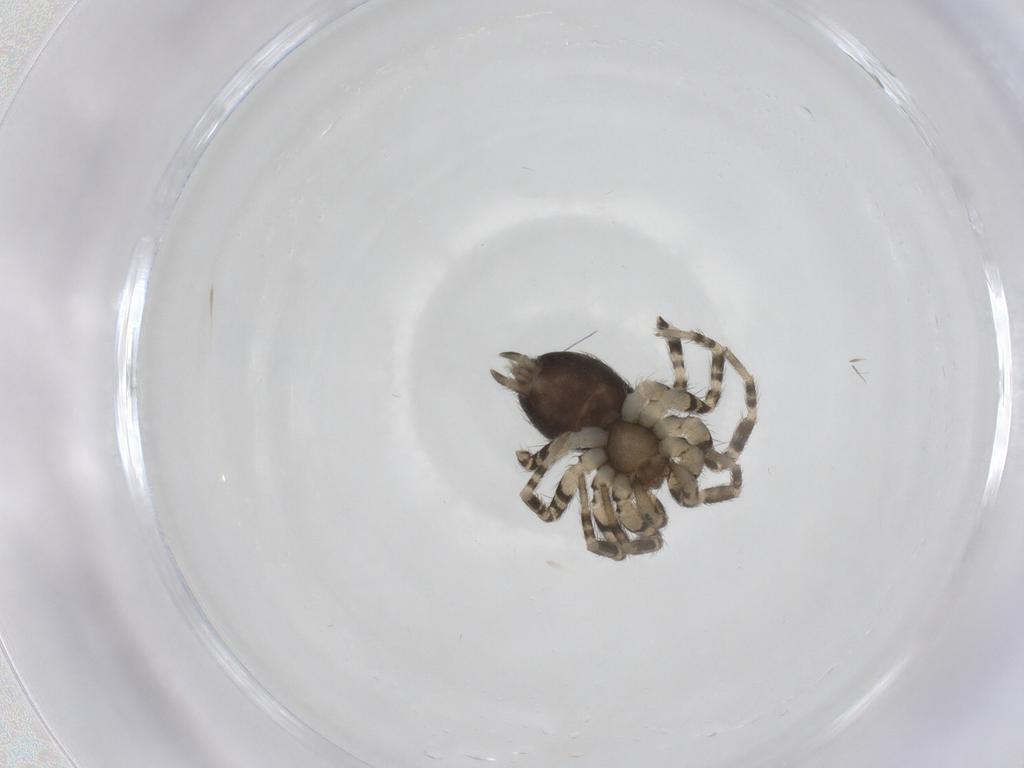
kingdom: Animalia
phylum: Arthropoda
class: Arachnida
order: Araneae
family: Oecobiidae
